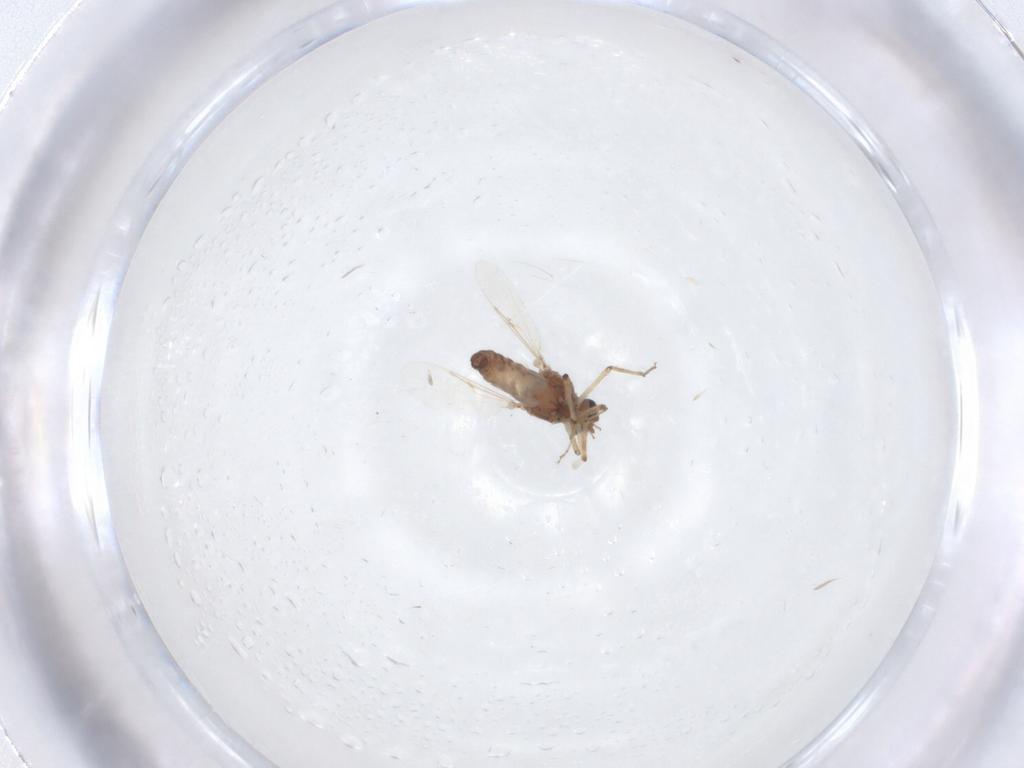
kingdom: Animalia
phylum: Arthropoda
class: Insecta
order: Diptera
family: Ceratopogonidae
